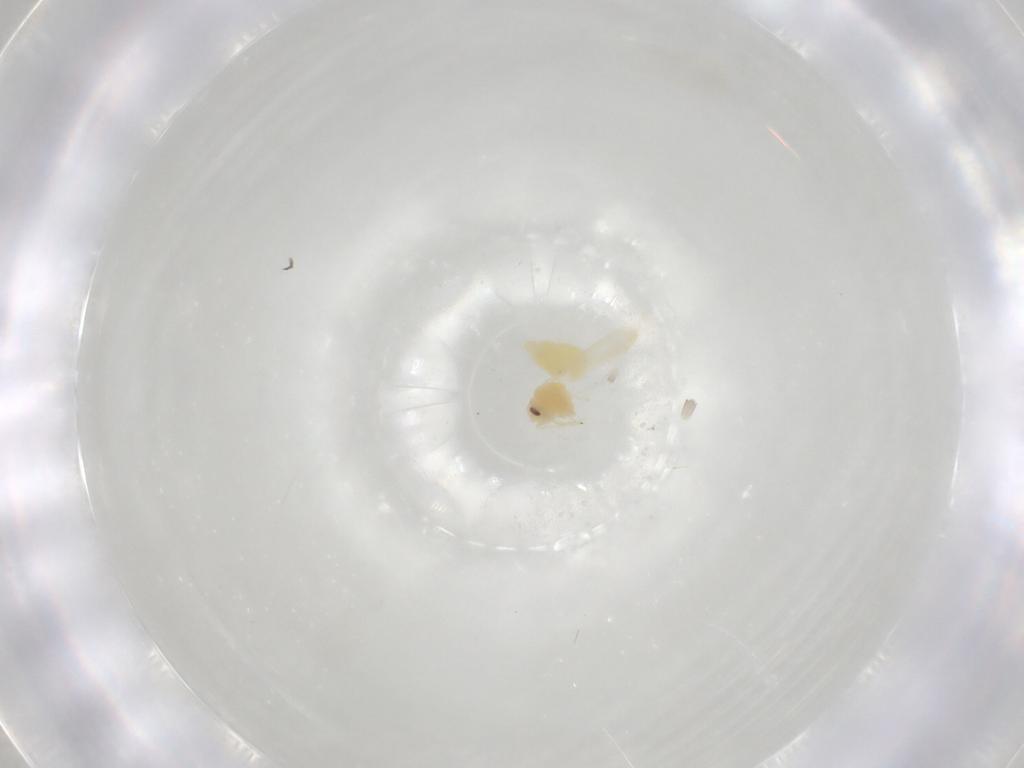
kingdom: Animalia
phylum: Arthropoda
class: Insecta
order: Hemiptera
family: Aleyrodidae
